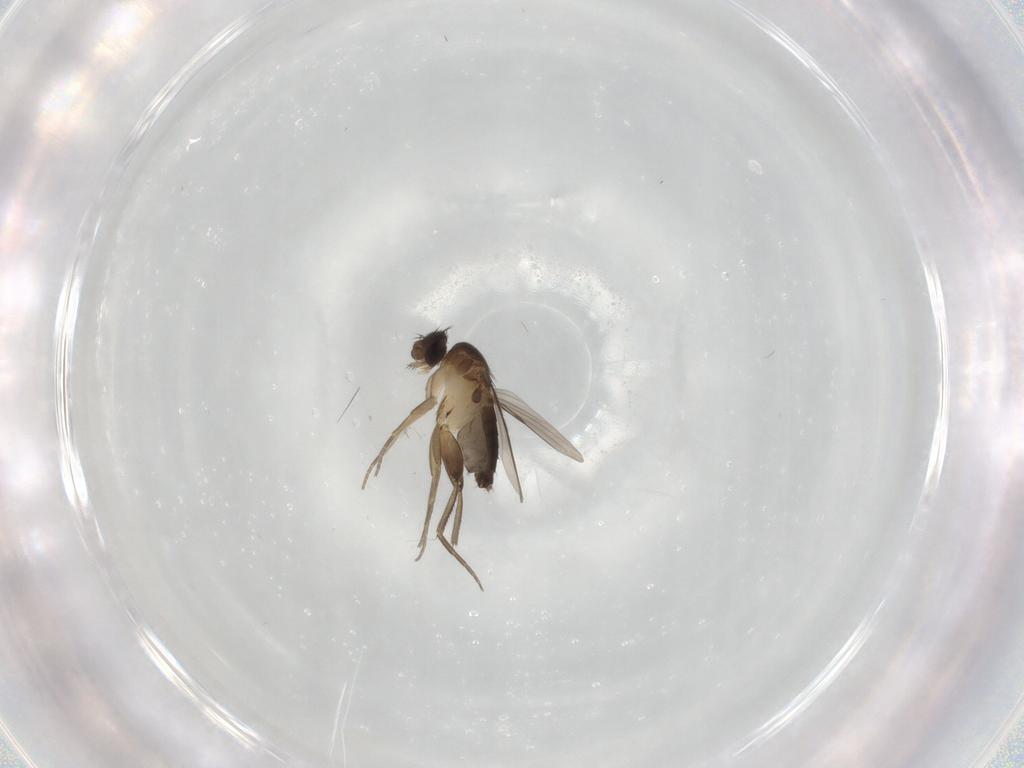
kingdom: Animalia
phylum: Arthropoda
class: Insecta
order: Diptera
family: Phoridae
